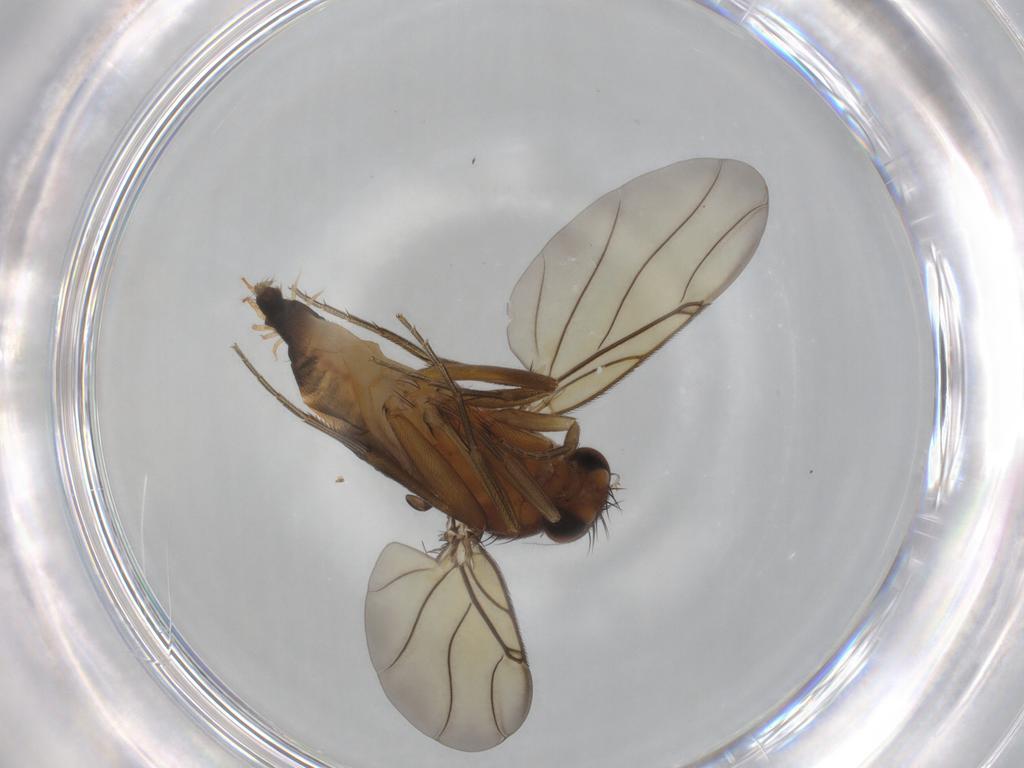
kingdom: Animalia
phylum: Arthropoda
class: Insecta
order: Diptera
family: Phoridae
